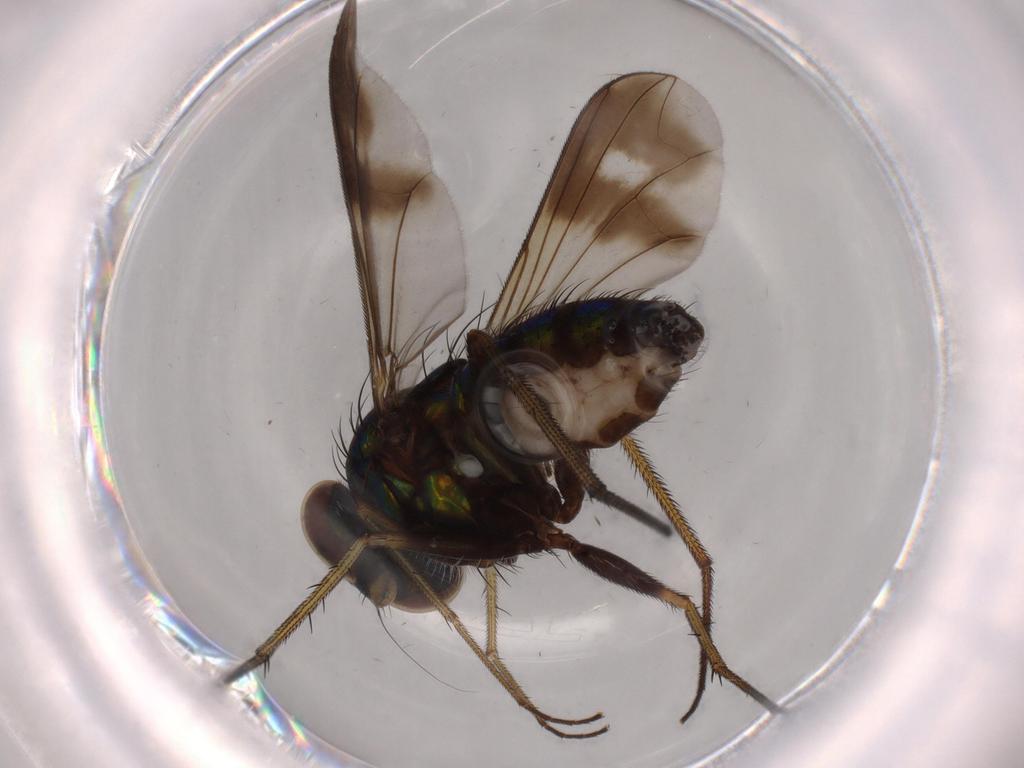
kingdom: Animalia
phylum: Arthropoda
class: Insecta
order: Diptera
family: Dolichopodidae
